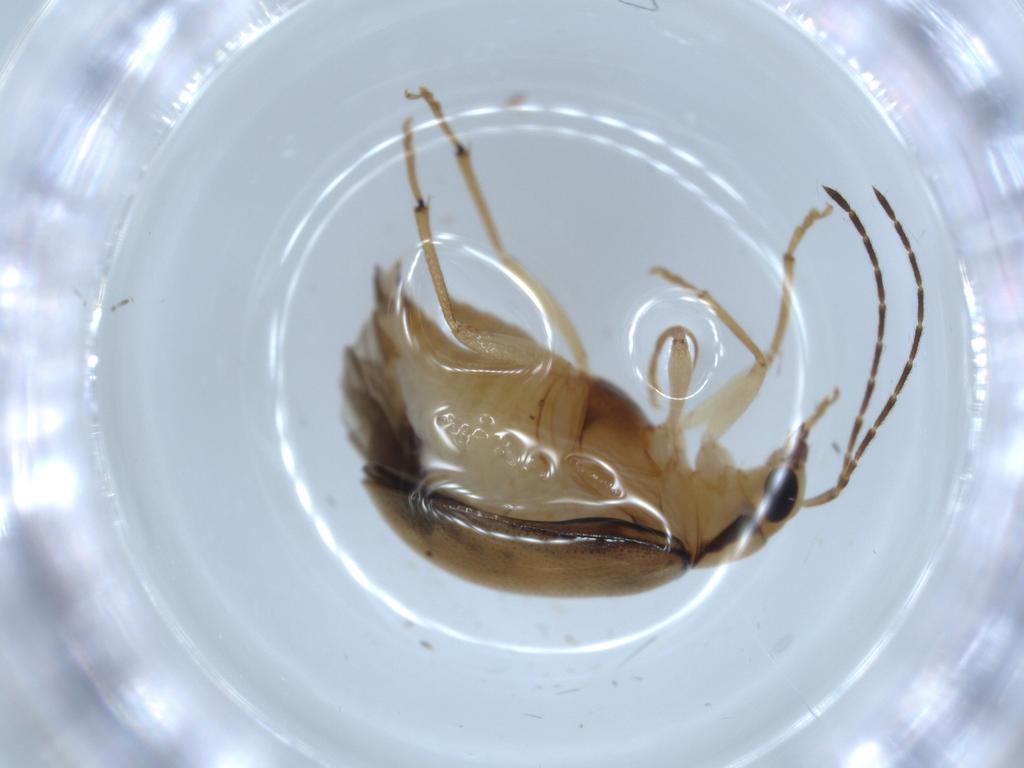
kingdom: Animalia
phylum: Arthropoda
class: Insecta
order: Coleoptera
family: Chrysomelidae
